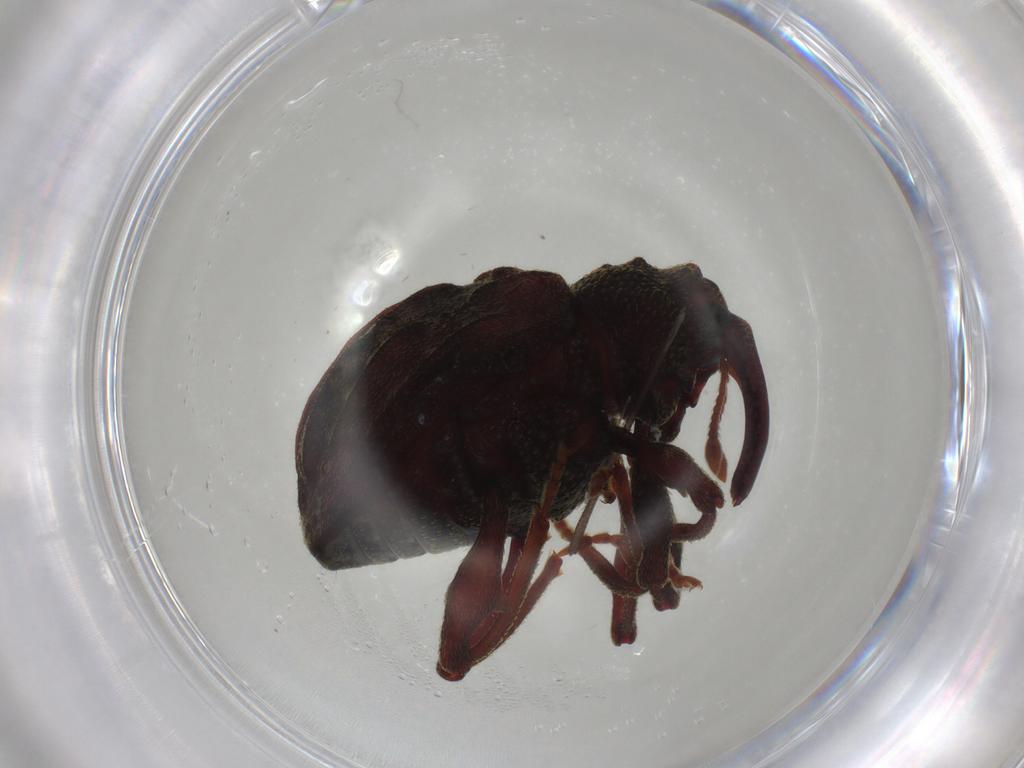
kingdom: Animalia
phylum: Arthropoda
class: Insecta
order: Coleoptera
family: Curculionidae
